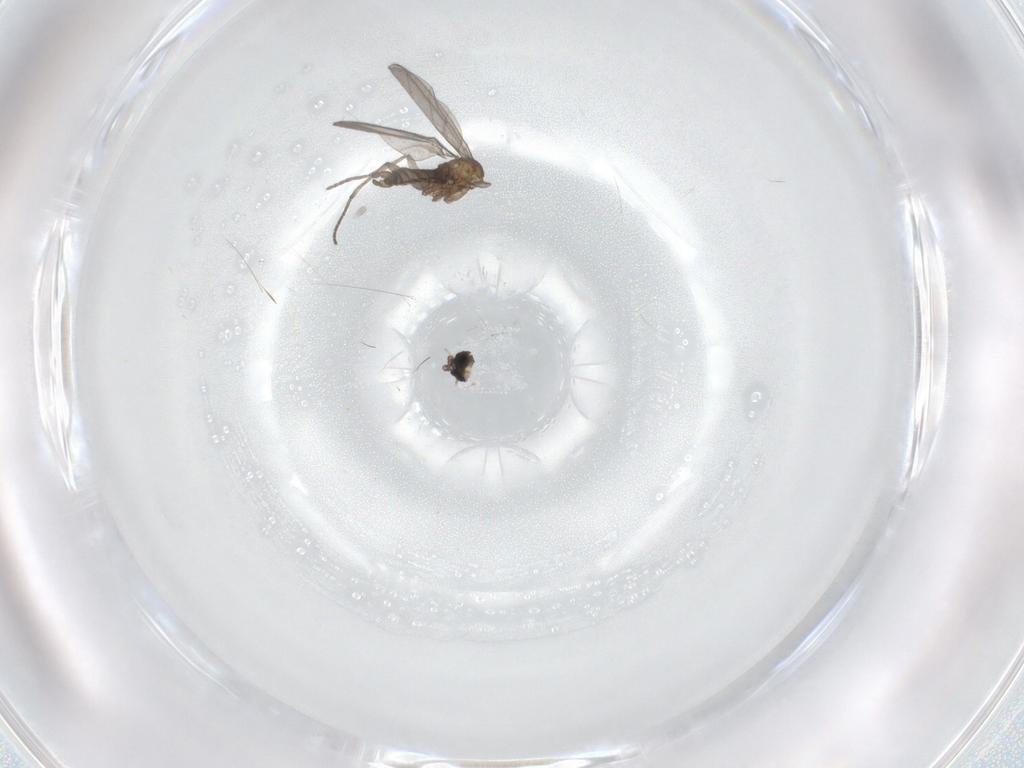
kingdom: Animalia
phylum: Arthropoda
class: Insecta
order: Diptera
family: Sciaridae
